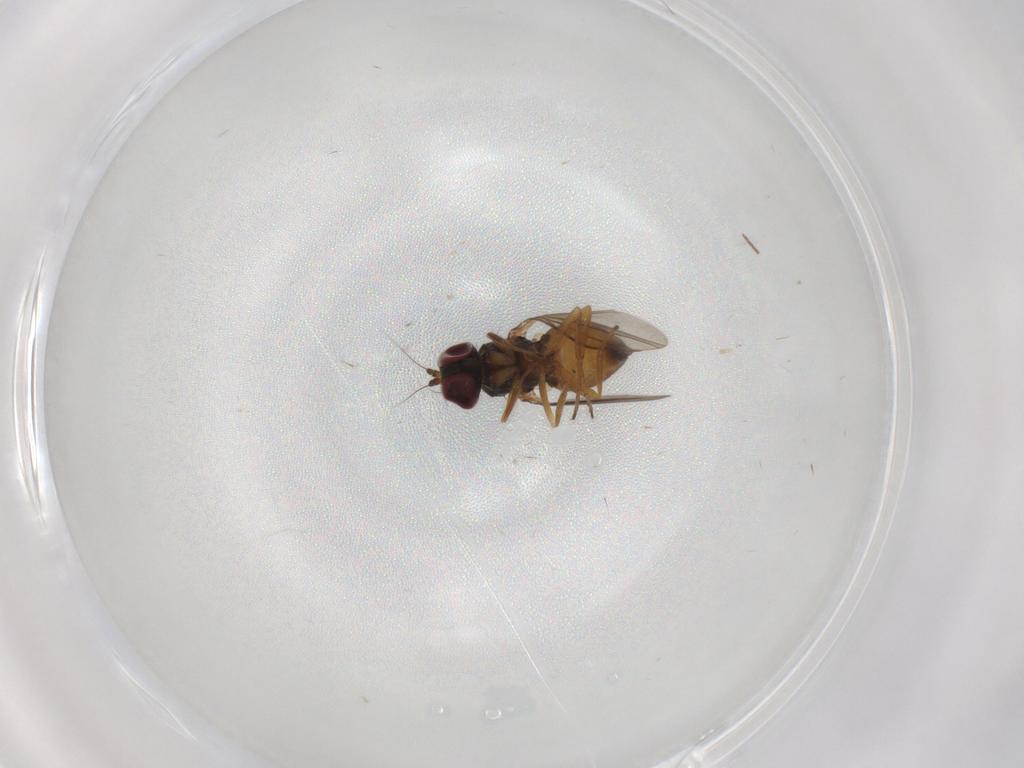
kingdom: Animalia
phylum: Arthropoda
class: Insecta
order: Diptera
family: Dolichopodidae
